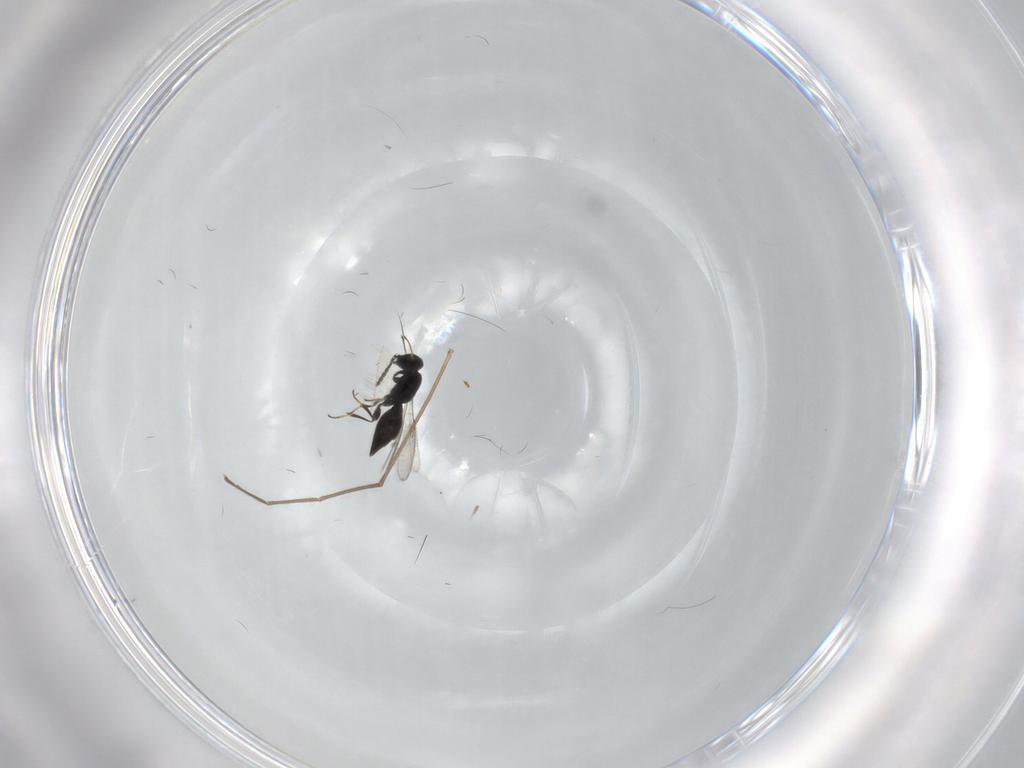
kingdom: Animalia
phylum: Arthropoda
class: Insecta
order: Hymenoptera
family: Scelionidae
